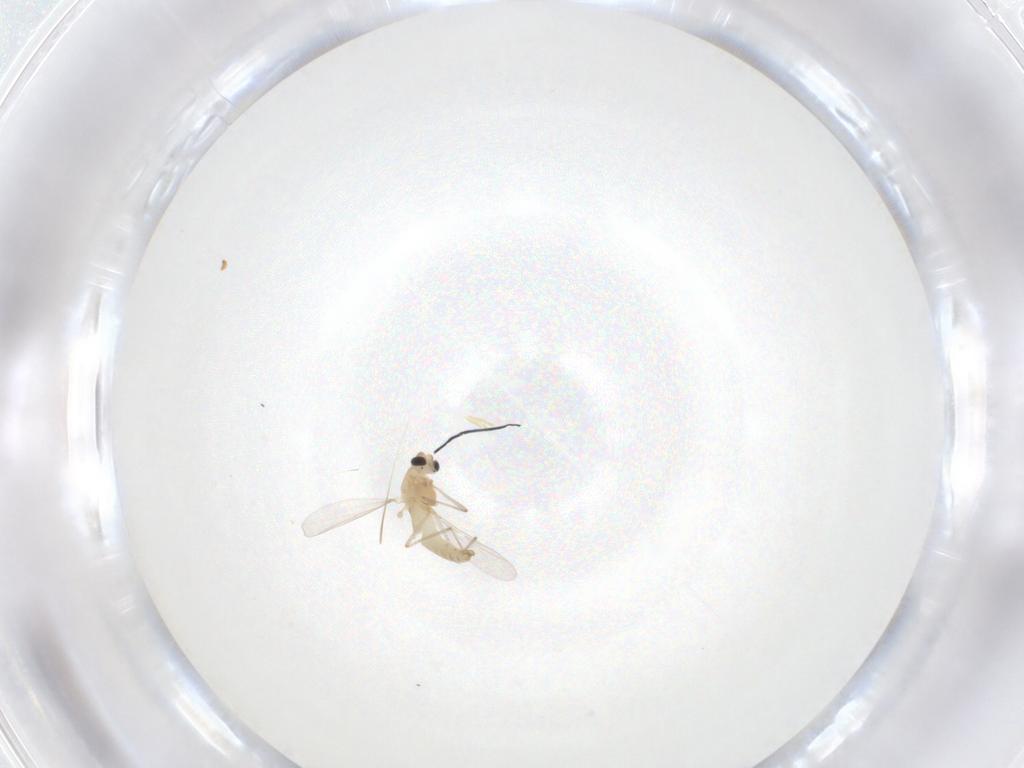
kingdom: Animalia
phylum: Arthropoda
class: Insecta
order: Diptera
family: Chironomidae
